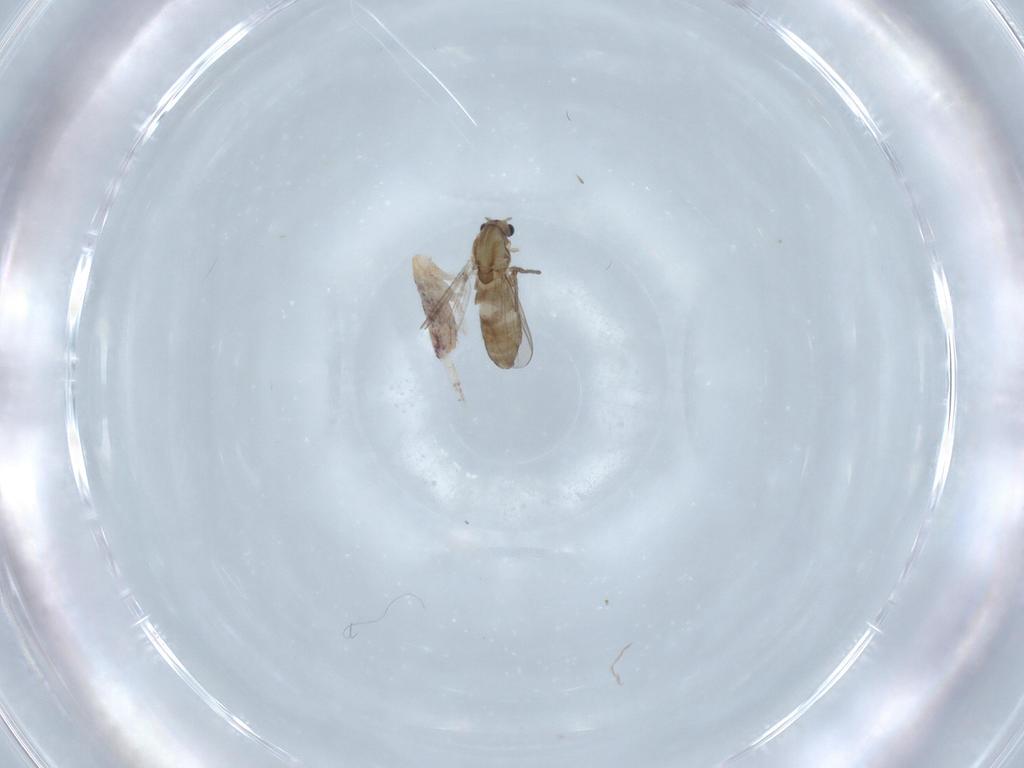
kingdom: Animalia
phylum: Arthropoda
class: Insecta
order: Diptera
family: Chironomidae
